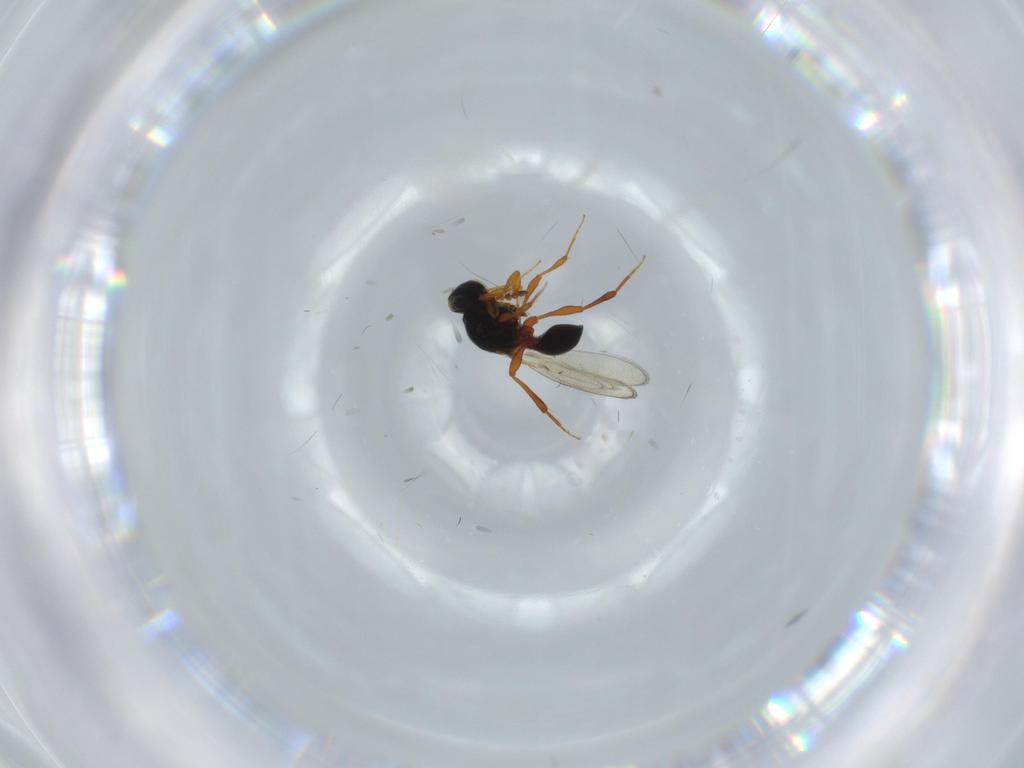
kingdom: Animalia
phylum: Arthropoda
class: Insecta
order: Hymenoptera
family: Platygastridae
